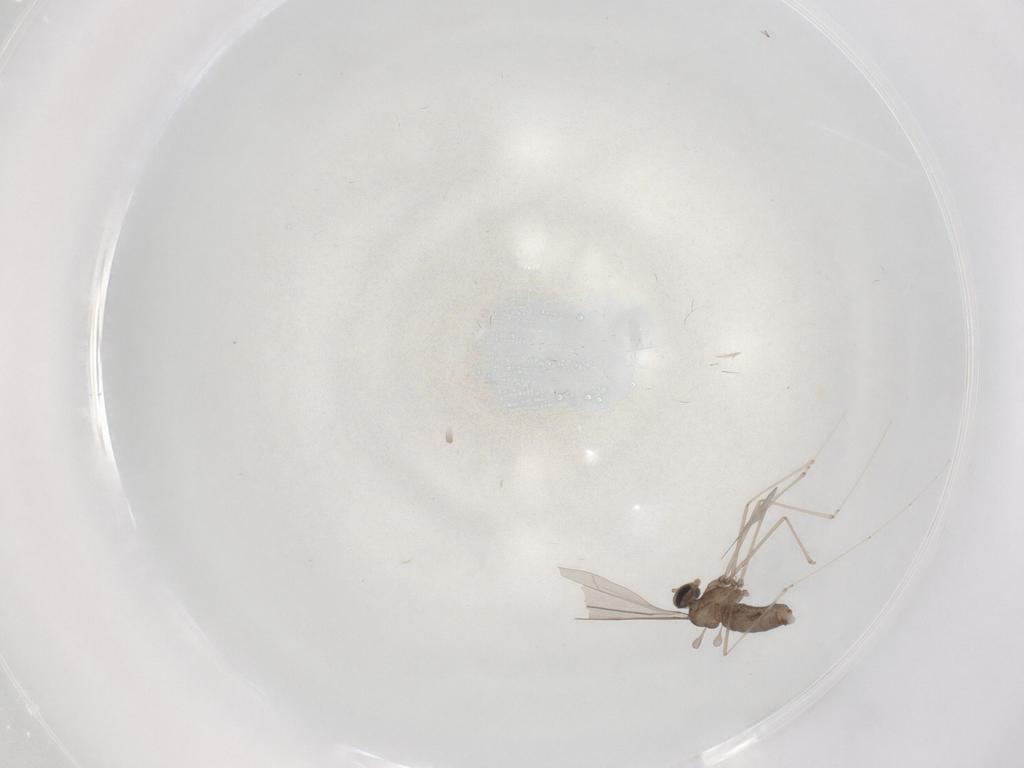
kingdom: Animalia
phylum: Arthropoda
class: Insecta
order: Diptera
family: Cecidomyiidae
